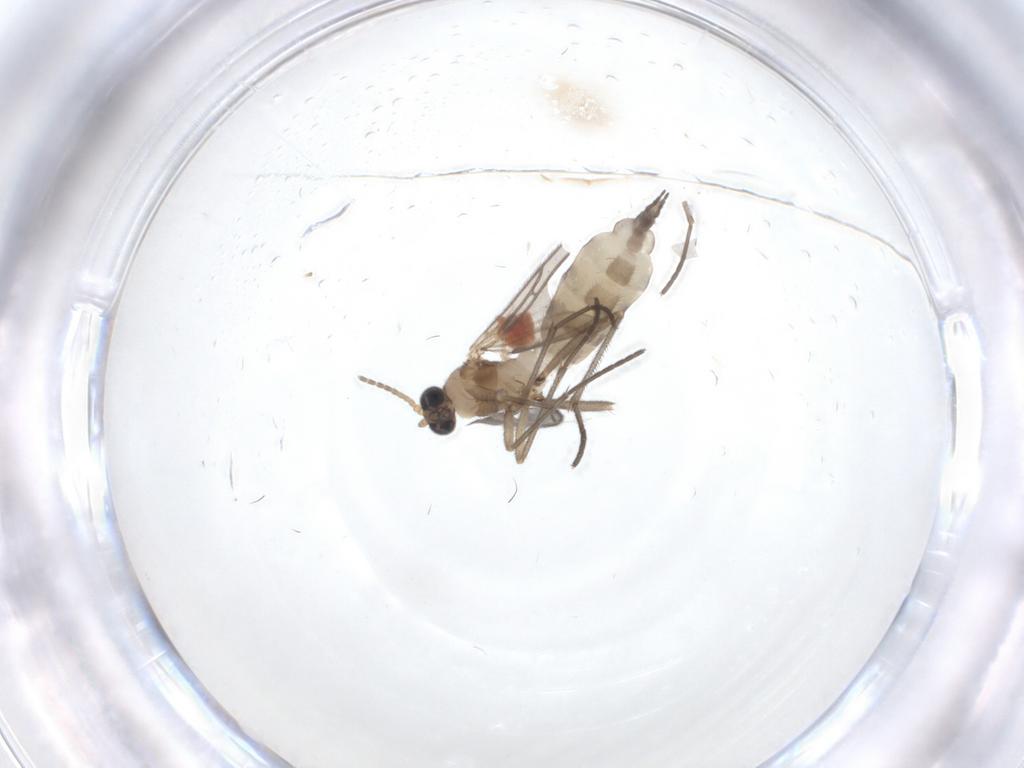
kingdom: Animalia
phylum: Arthropoda
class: Insecta
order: Diptera
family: Sciaridae
